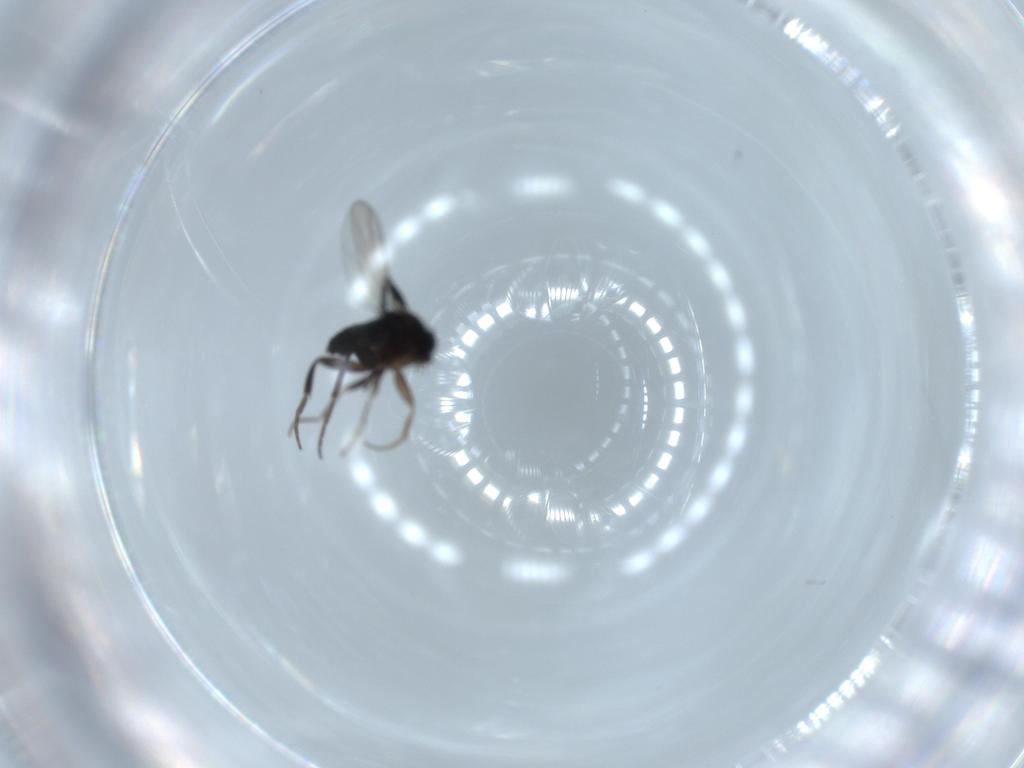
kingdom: Animalia
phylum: Arthropoda
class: Insecta
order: Diptera
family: Phoridae
